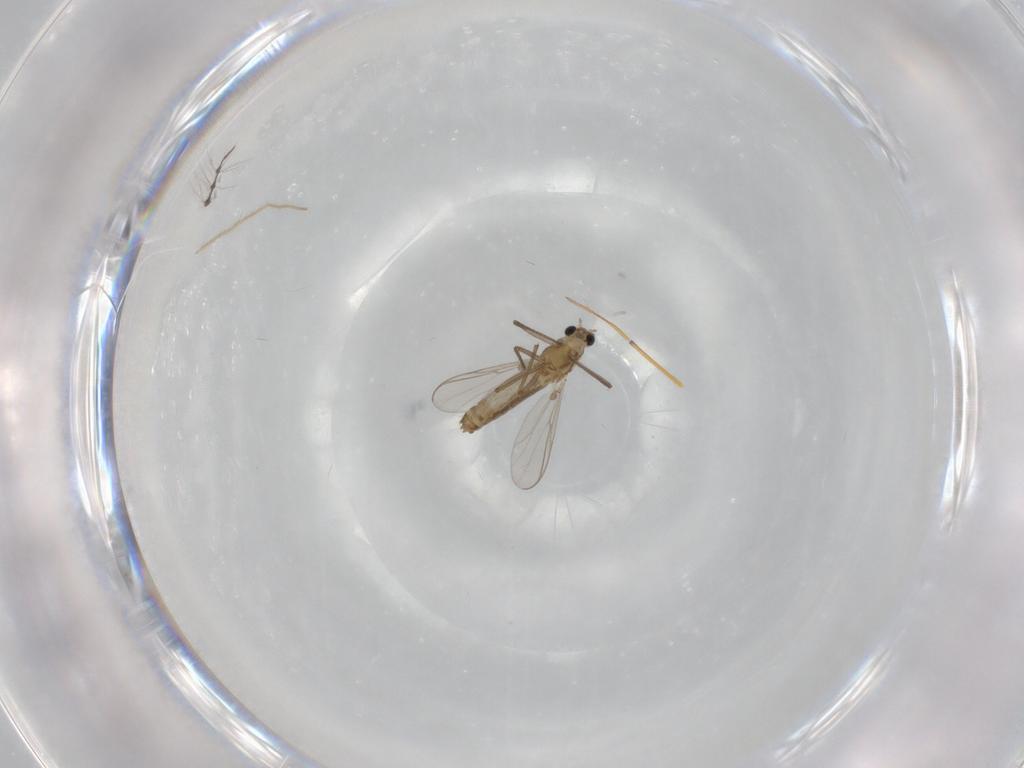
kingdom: Animalia
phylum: Arthropoda
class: Insecta
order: Diptera
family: Chironomidae
